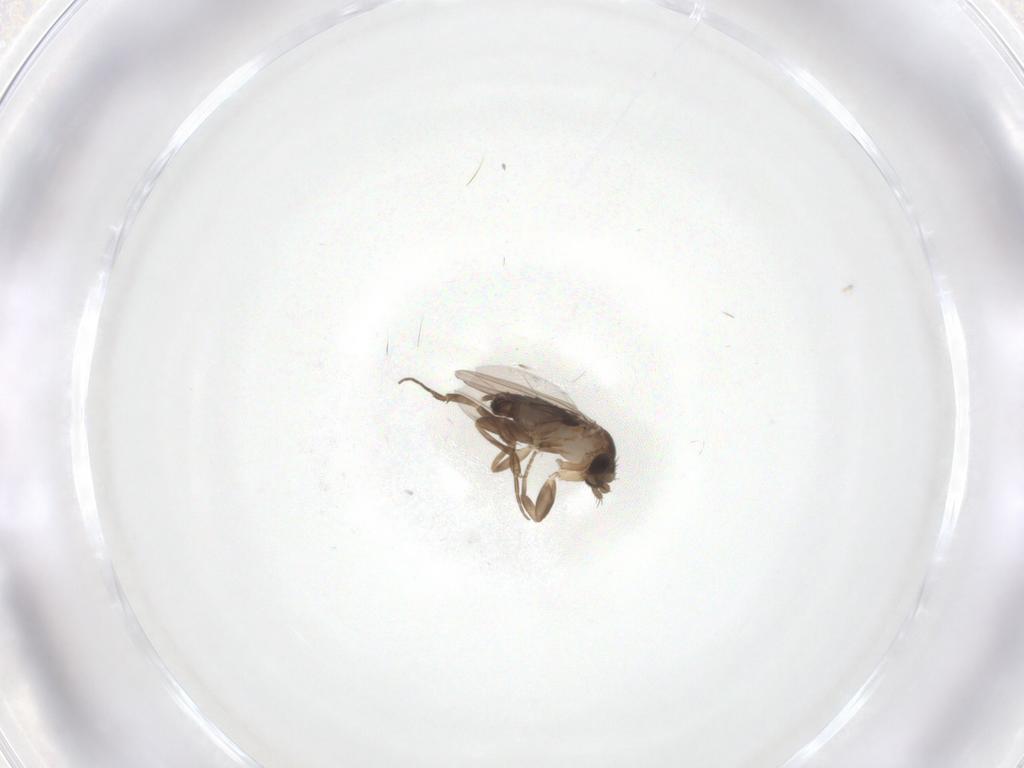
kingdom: Animalia
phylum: Arthropoda
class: Insecta
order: Diptera
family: Sciaridae
